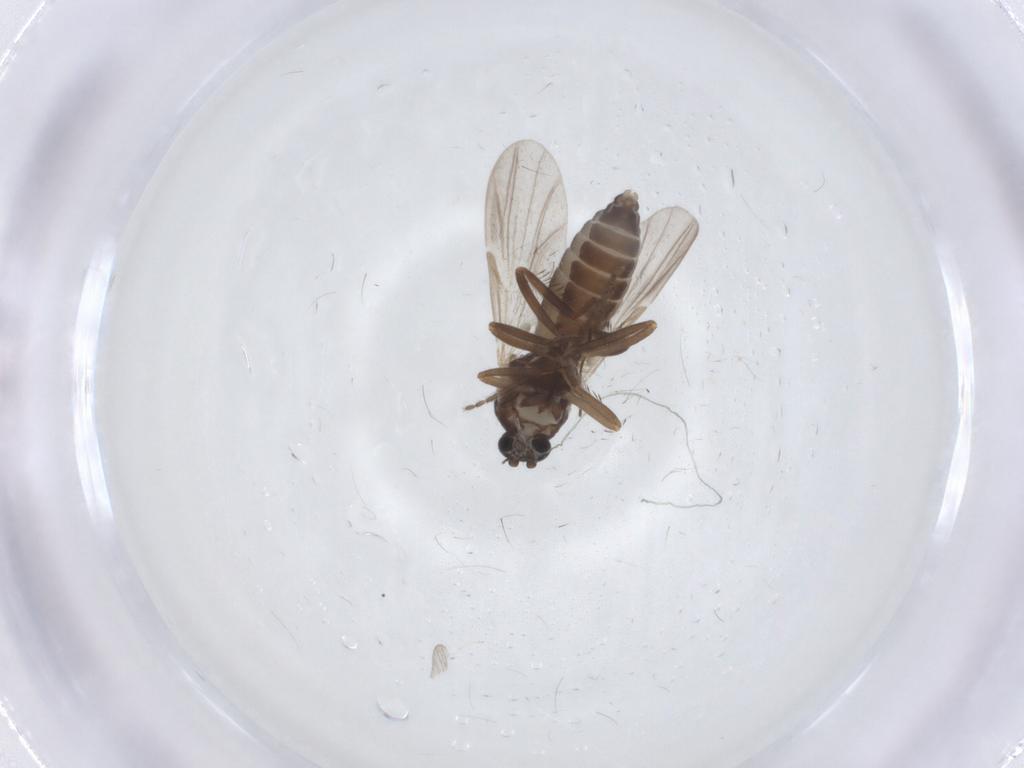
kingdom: Animalia
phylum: Arthropoda
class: Insecta
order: Diptera
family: Ceratopogonidae
